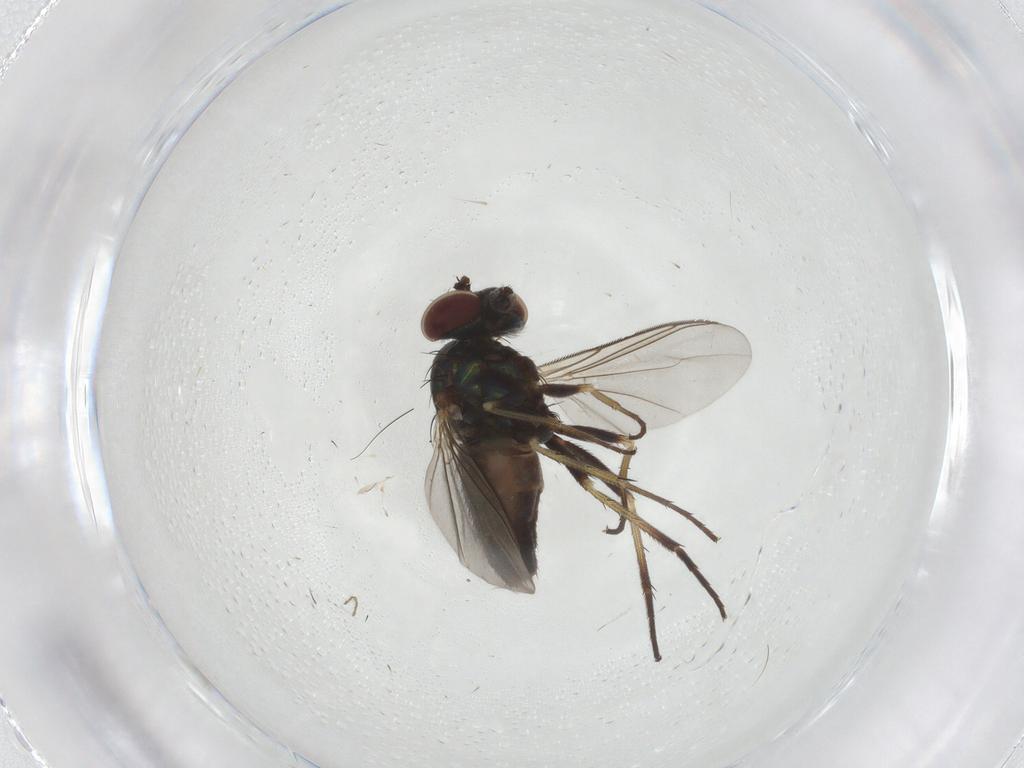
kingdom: Animalia
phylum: Arthropoda
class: Insecta
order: Diptera
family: Dolichopodidae
